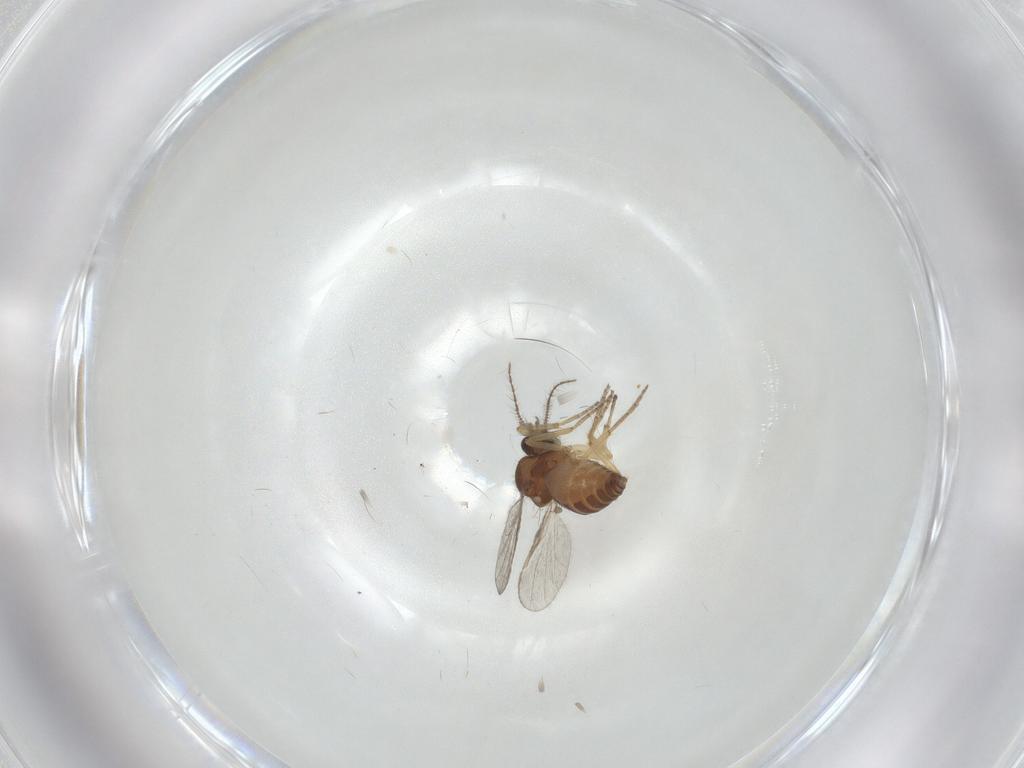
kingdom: Animalia
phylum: Arthropoda
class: Insecta
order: Diptera
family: Ceratopogonidae
